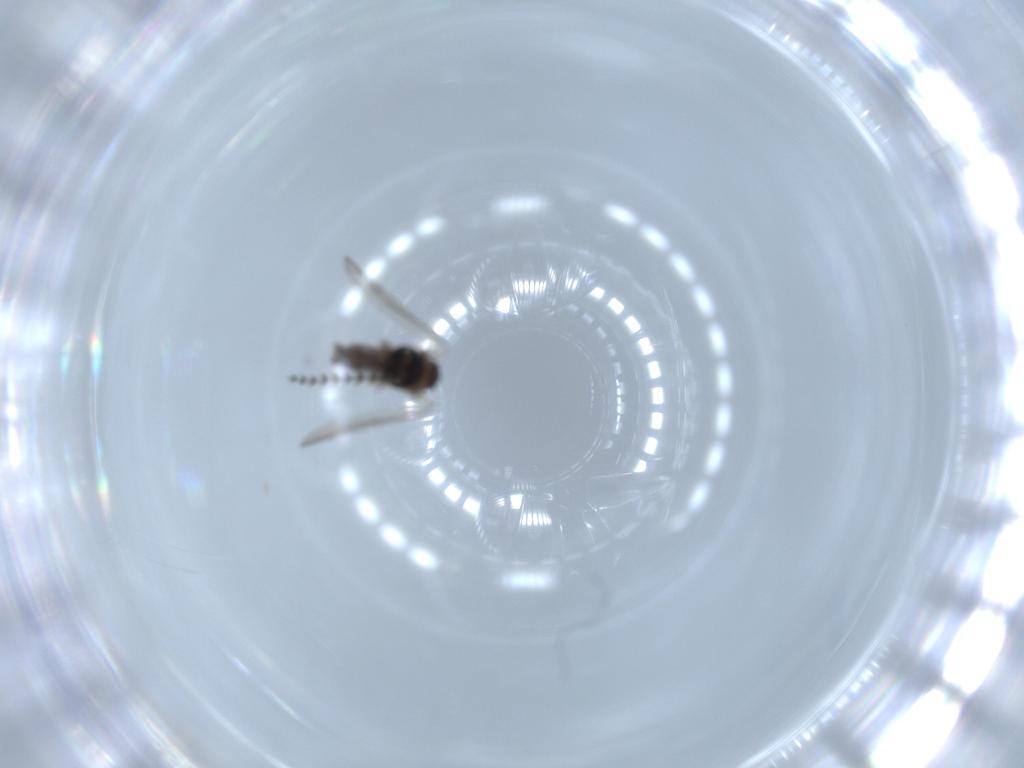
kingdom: Animalia
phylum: Arthropoda
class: Insecta
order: Diptera
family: Psychodidae
